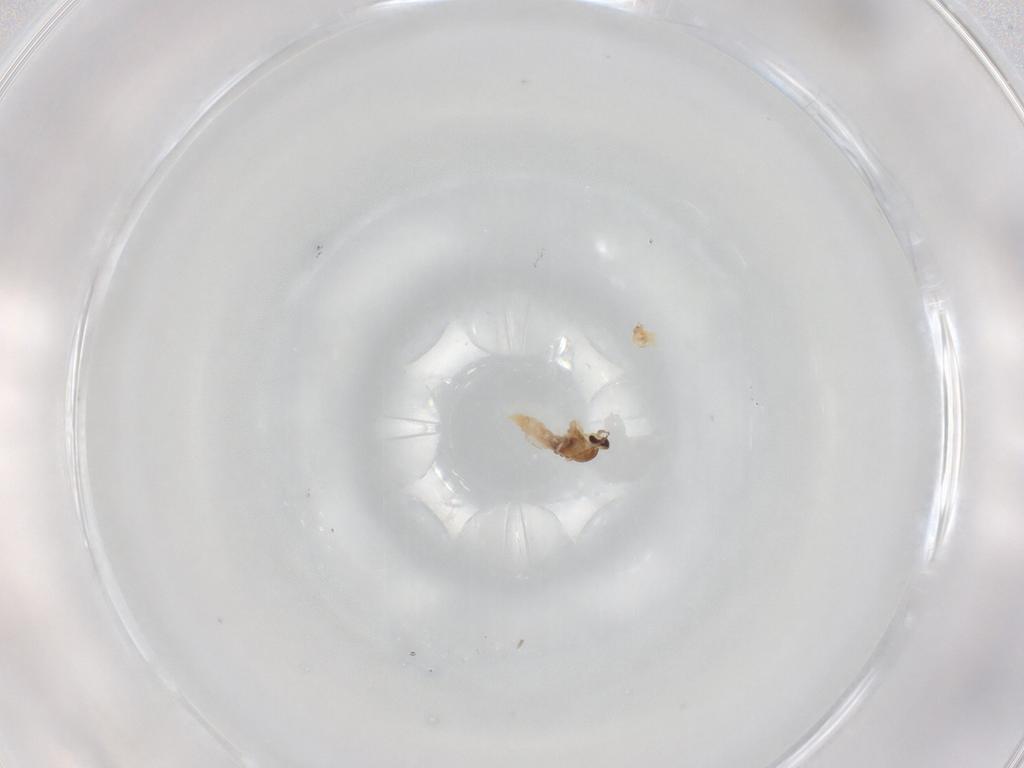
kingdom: Animalia
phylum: Arthropoda
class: Insecta
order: Diptera
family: Cecidomyiidae
